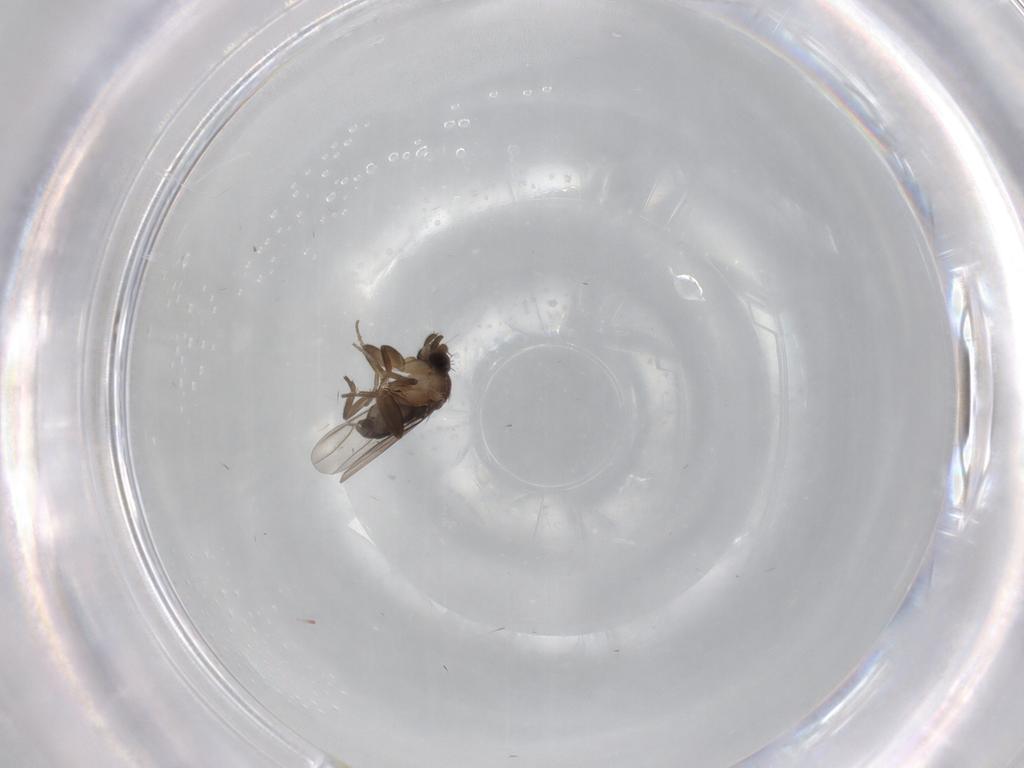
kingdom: Animalia
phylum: Arthropoda
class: Insecta
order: Diptera
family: Phoridae
